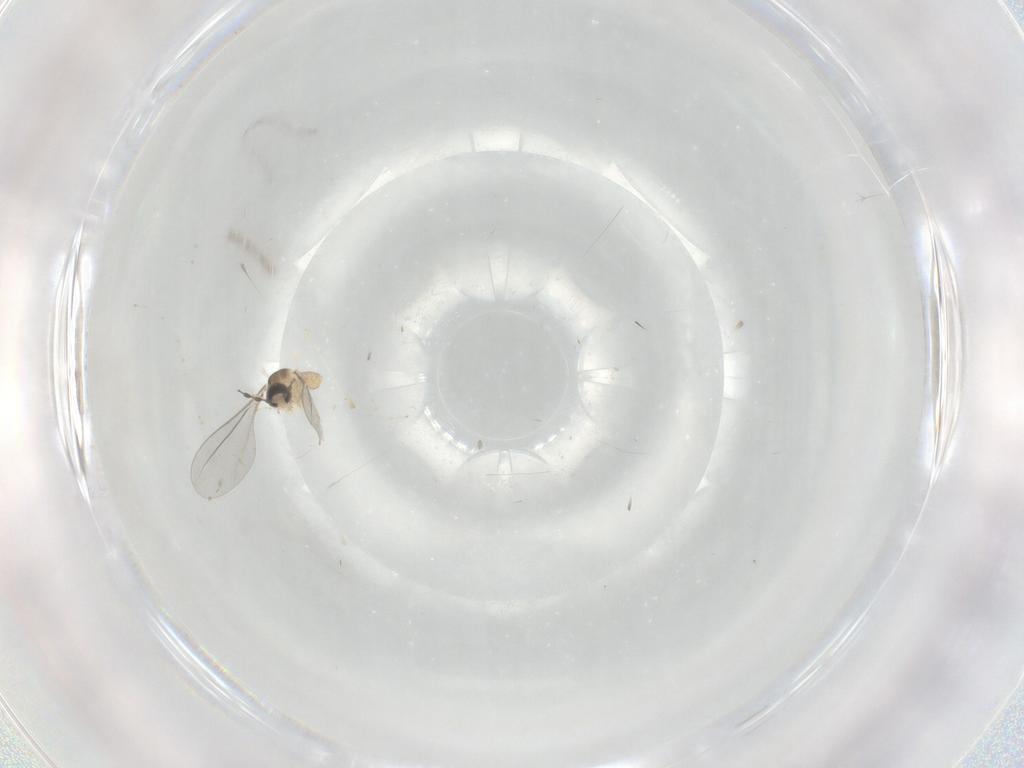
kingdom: Animalia
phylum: Arthropoda
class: Insecta
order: Diptera
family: Cecidomyiidae
